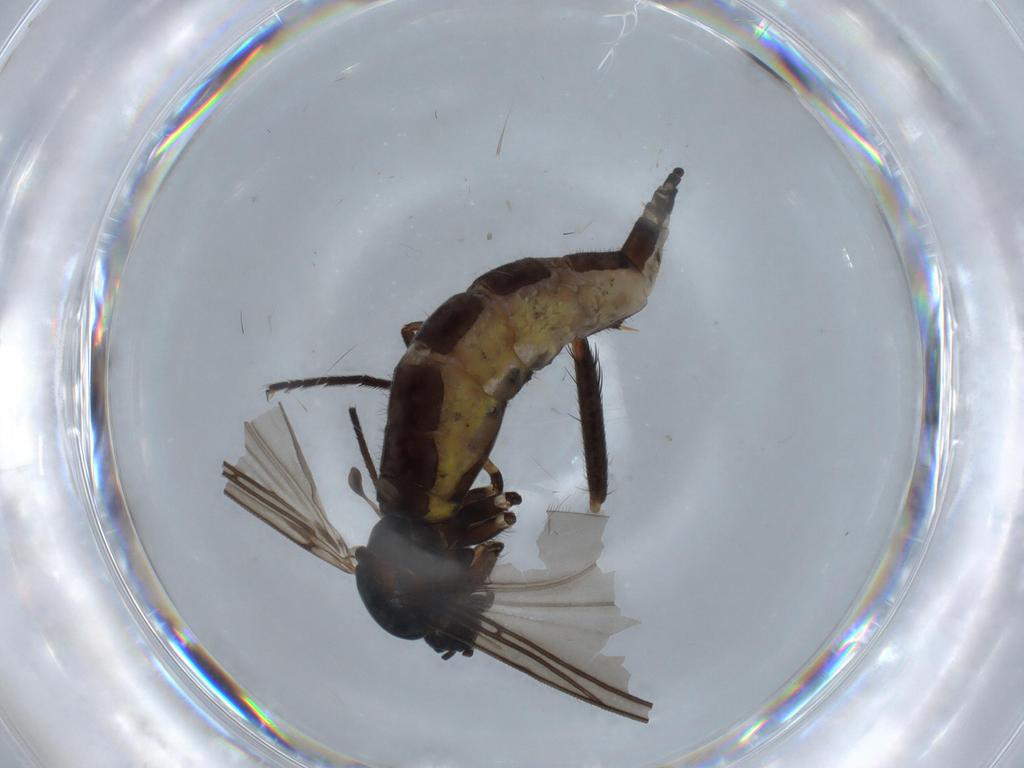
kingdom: Animalia
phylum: Arthropoda
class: Insecta
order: Diptera
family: Sciaridae
